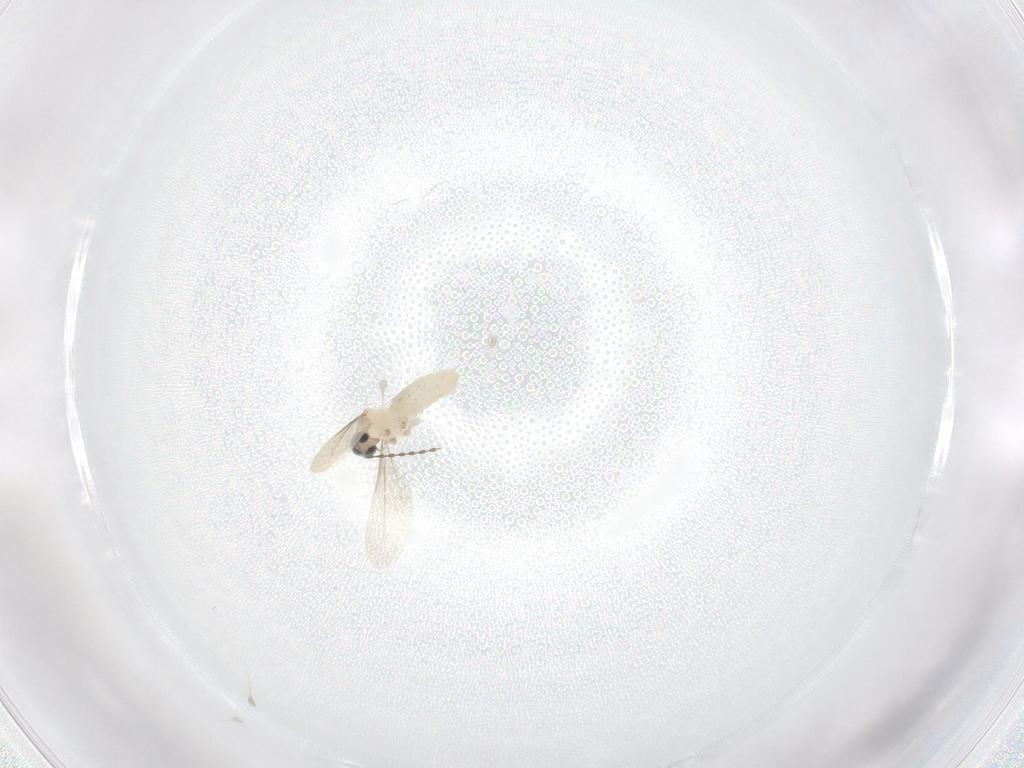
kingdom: Animalia
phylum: Arthropoda
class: Insecta
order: Diptera
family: Cecidomyiidae
